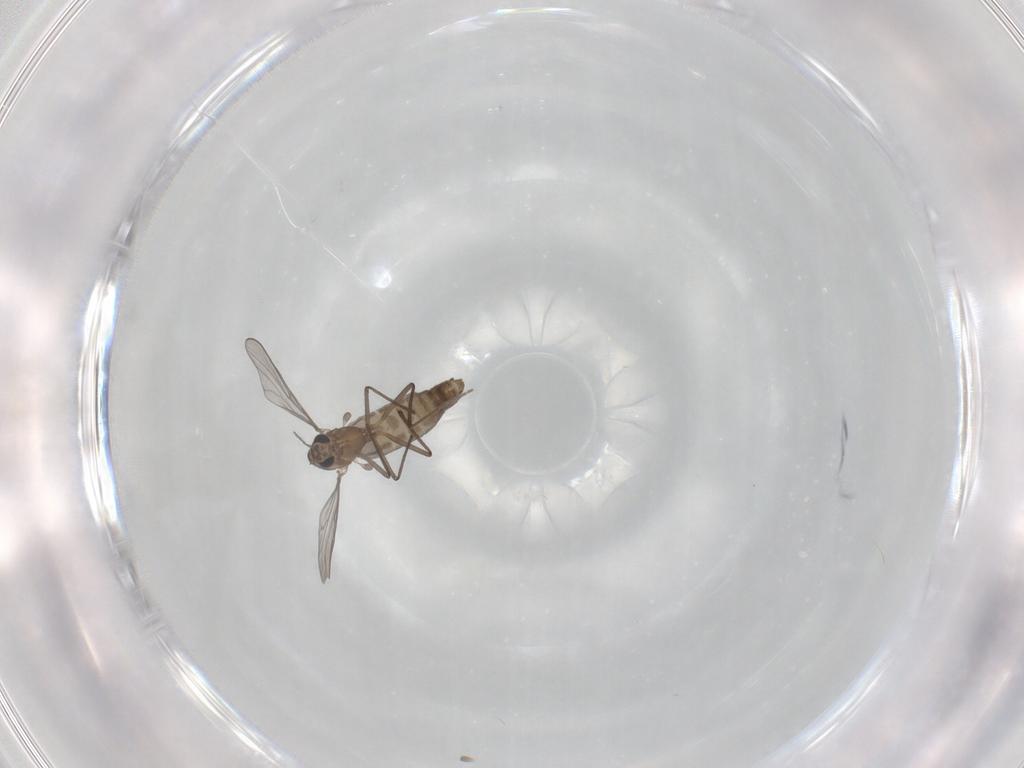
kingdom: Animalia
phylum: Arthropoda
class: Insecta
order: Diptera
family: Chironomidae
